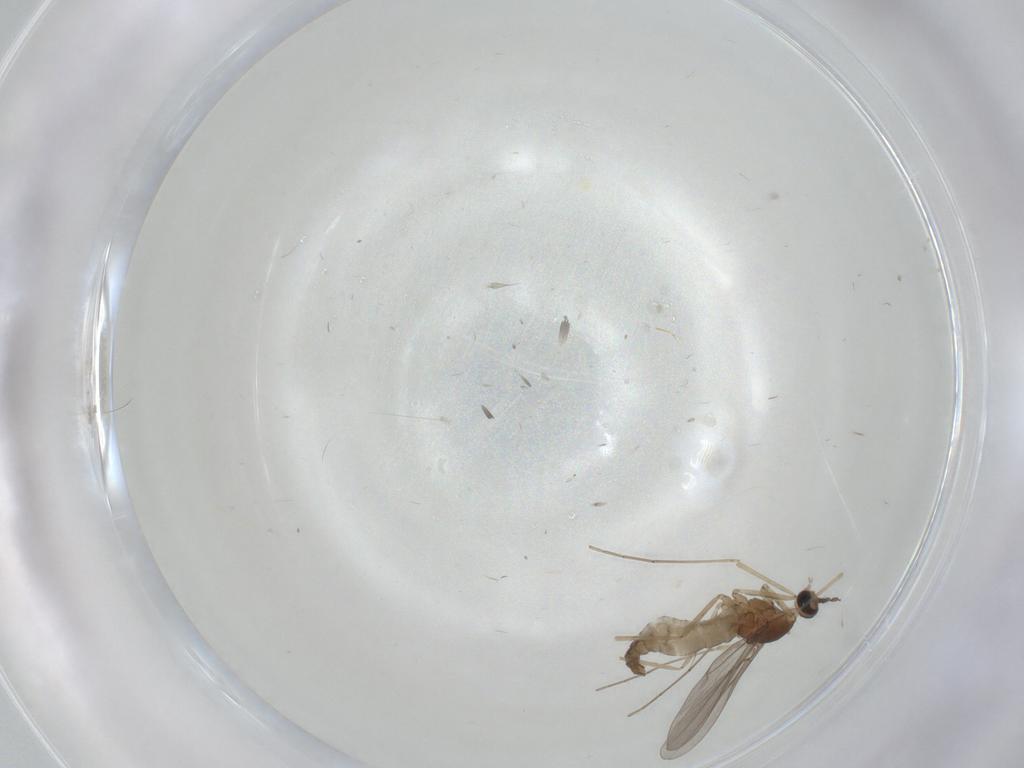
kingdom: Animalia
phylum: Arthropoda
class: Insecta
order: Diptera
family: Cecidomyiidae
